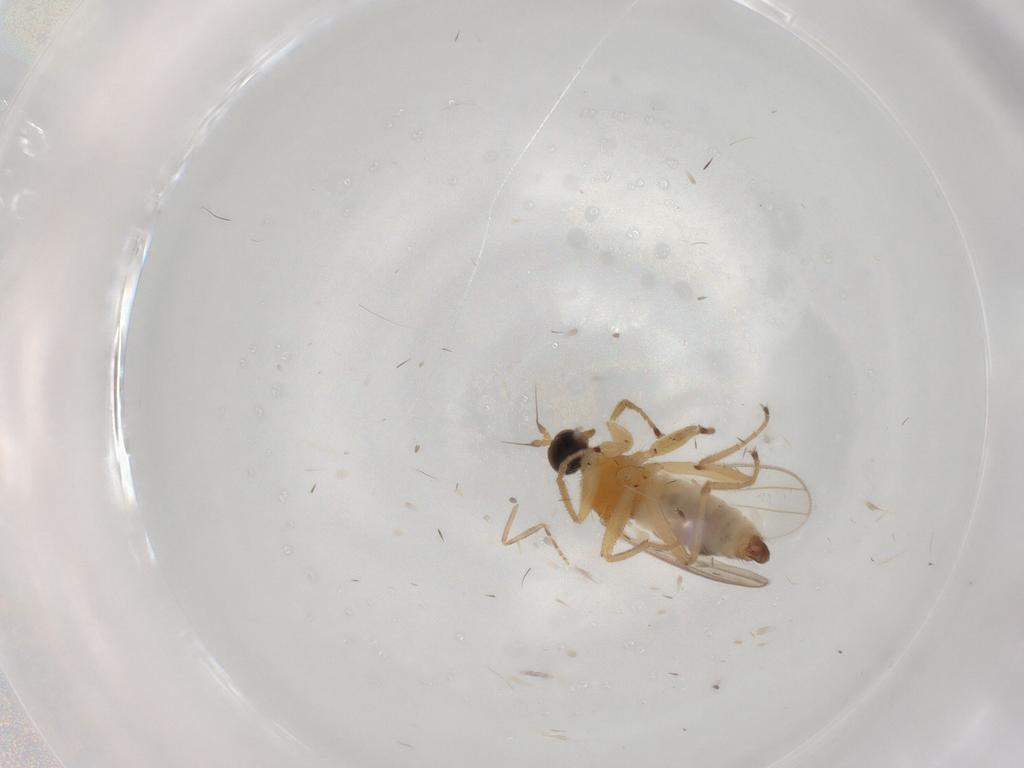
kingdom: Animalia
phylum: Arthropoda
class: Insecta
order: Diptera
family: Hybotidae
